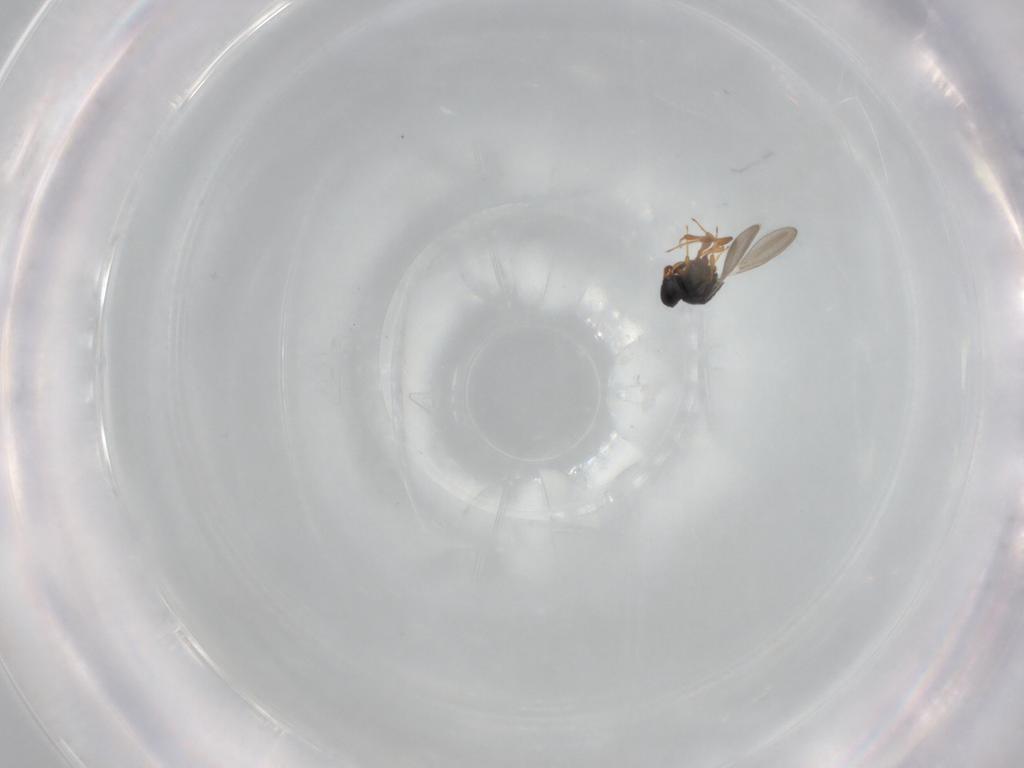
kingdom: Animalia
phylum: Arthropoda
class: Insecta
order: Hymenoptera
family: Platygastridae
